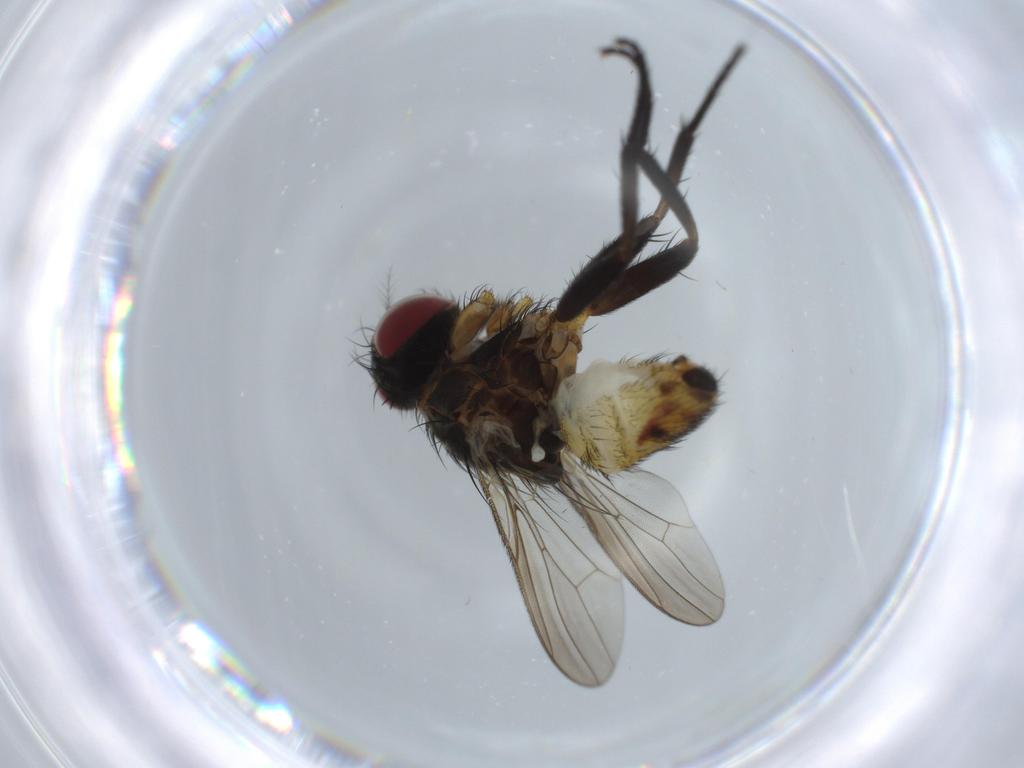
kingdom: Animalia
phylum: Arthropoda
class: Insecta
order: Diptera
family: Anthomyiidae
